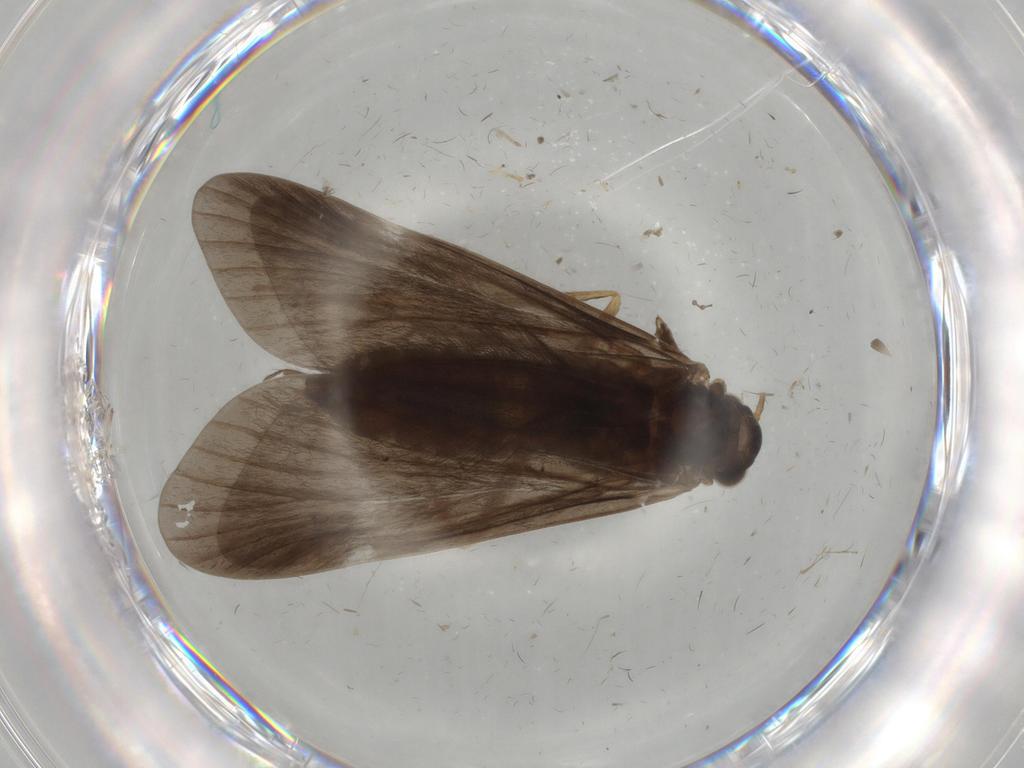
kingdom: Animalia
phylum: Arthropoda
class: Insecta
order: Trichoptera
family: Hydropsychidae
